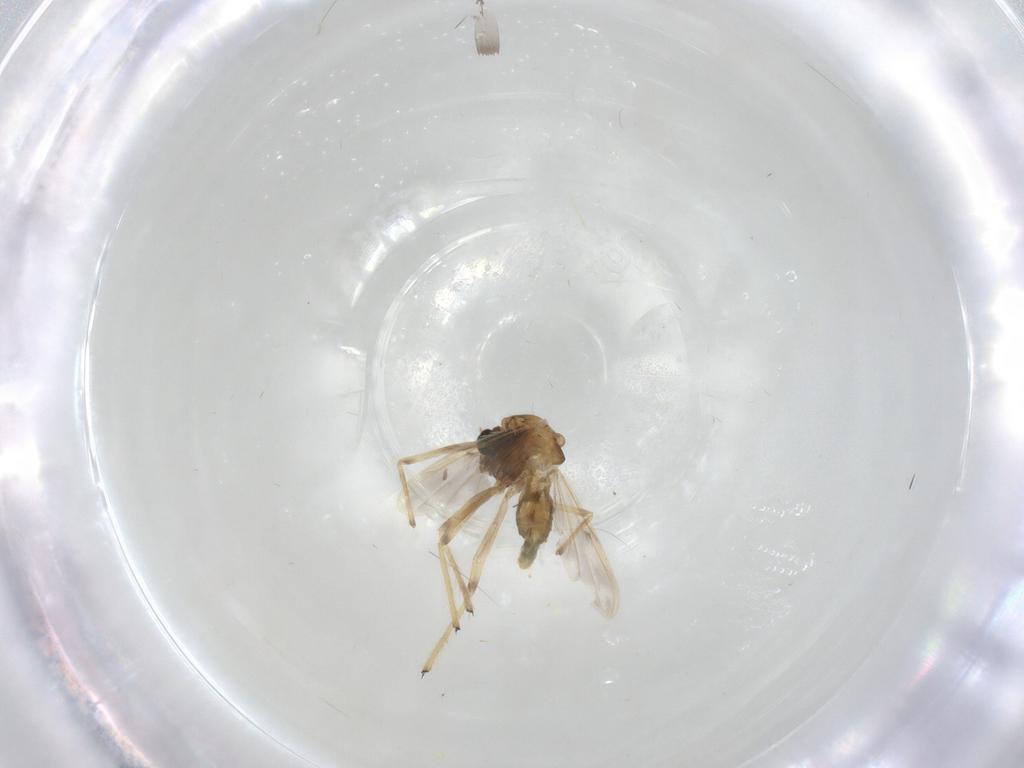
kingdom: Animalia
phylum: Arthropoda
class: Insecta
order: Diptera
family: Chironomidae
